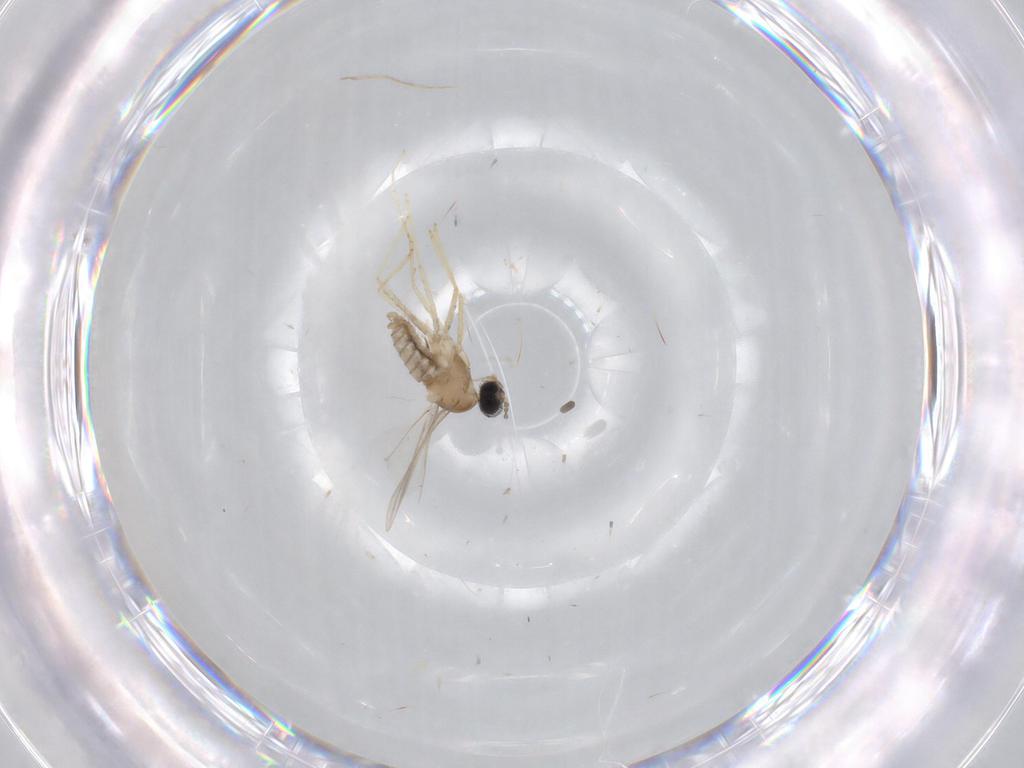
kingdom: Animalia
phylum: Arthropoda
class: Insecta
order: Diptera
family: Cecidomyiidae
